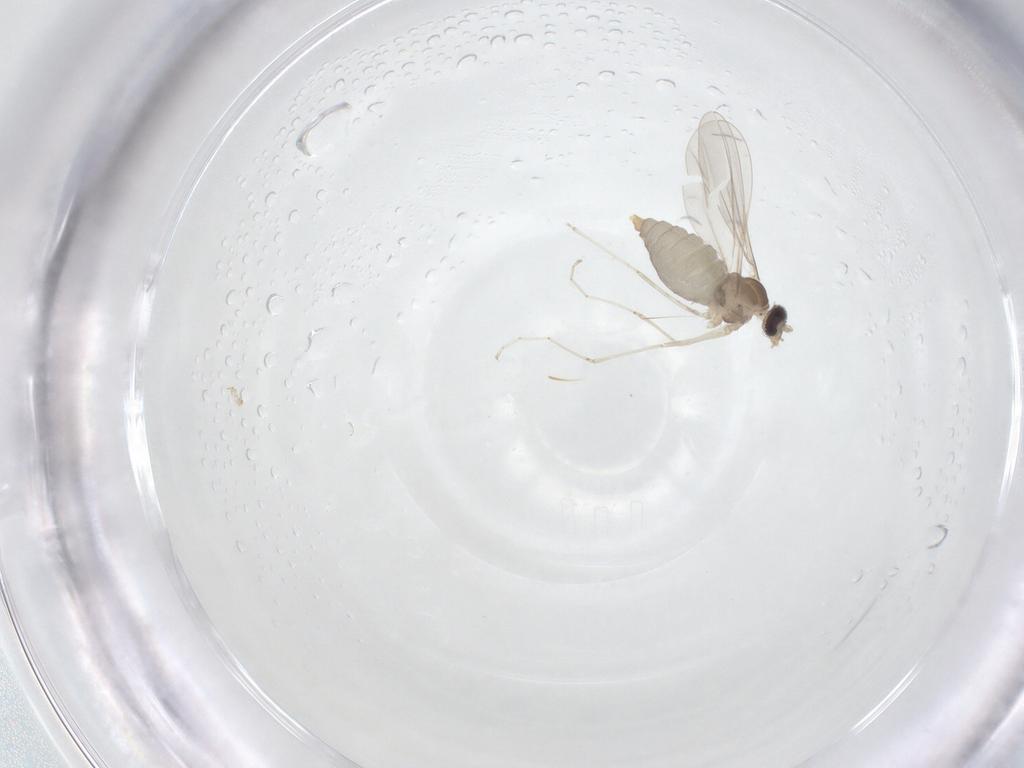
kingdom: Animalia
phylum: Arthropoda
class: Insecta
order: Diptera
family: Cecidomyiidae
